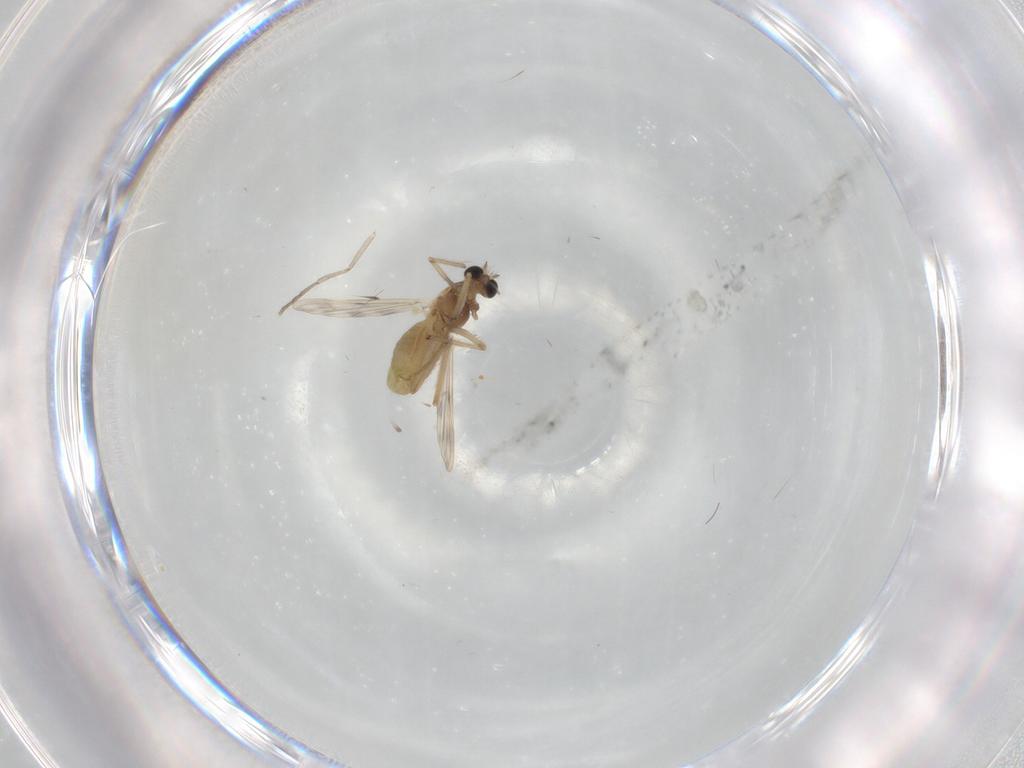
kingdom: Animalia
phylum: Arthropoda
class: Insecta
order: Diptera
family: Chironomidae
